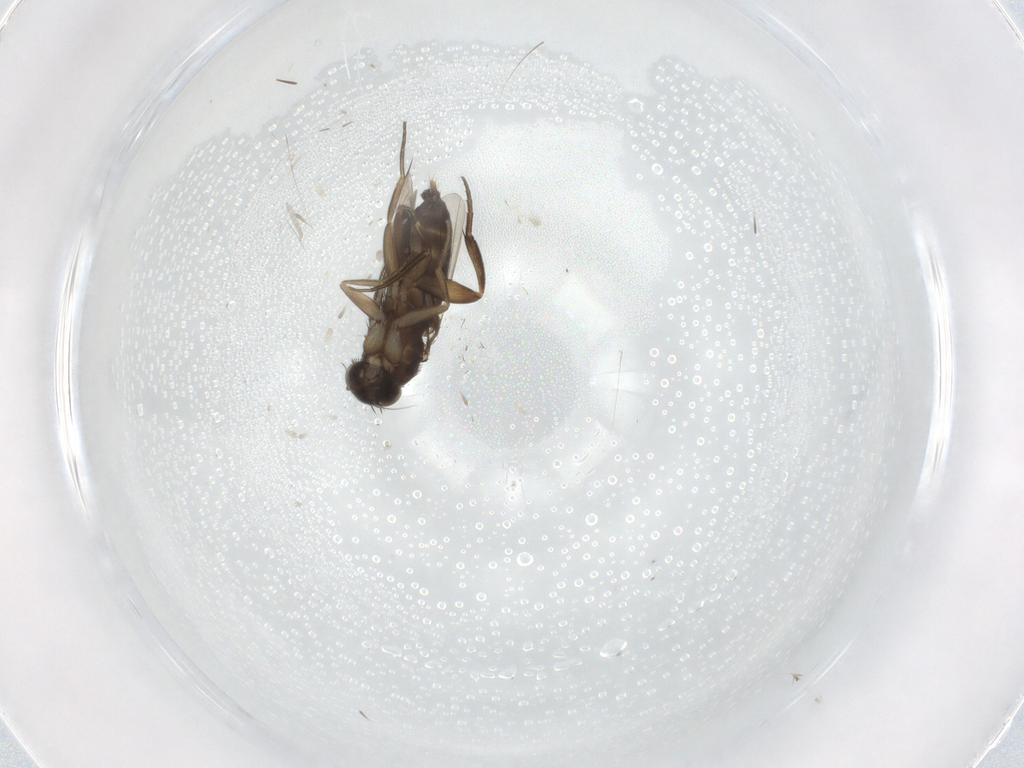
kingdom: Animalia
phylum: Arthropoda
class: Insecta
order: Diptera
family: Phoridae
